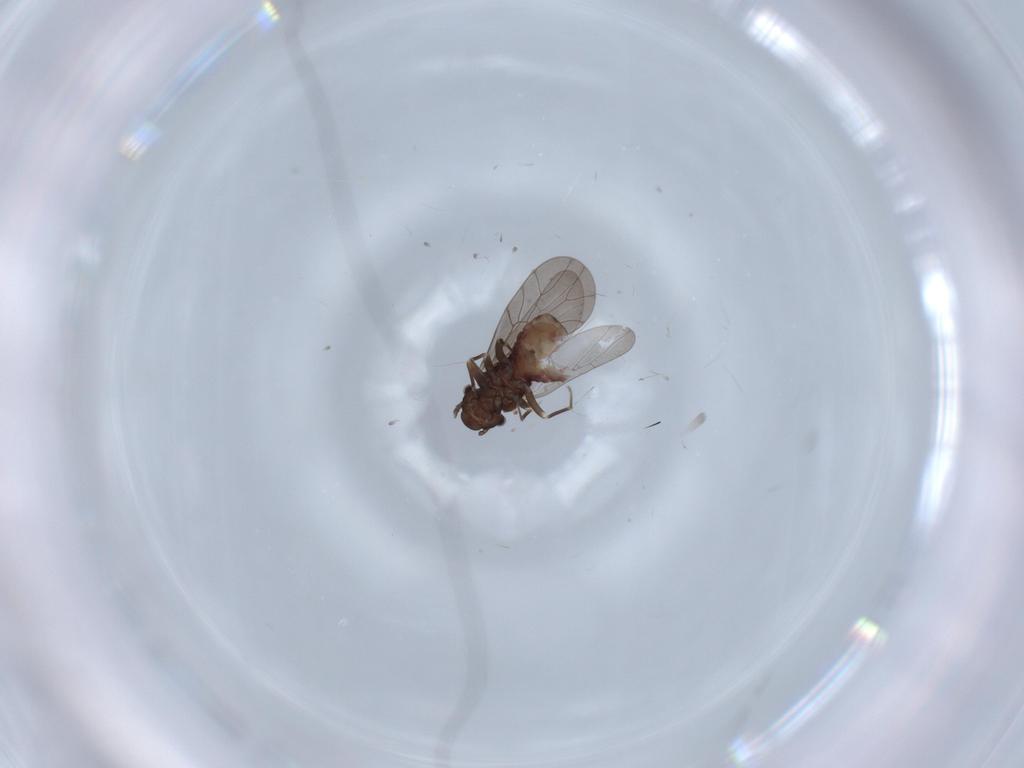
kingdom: Animalia
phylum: Arthropoda
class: Insecta
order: Psocodea
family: Lepidopsocidae
